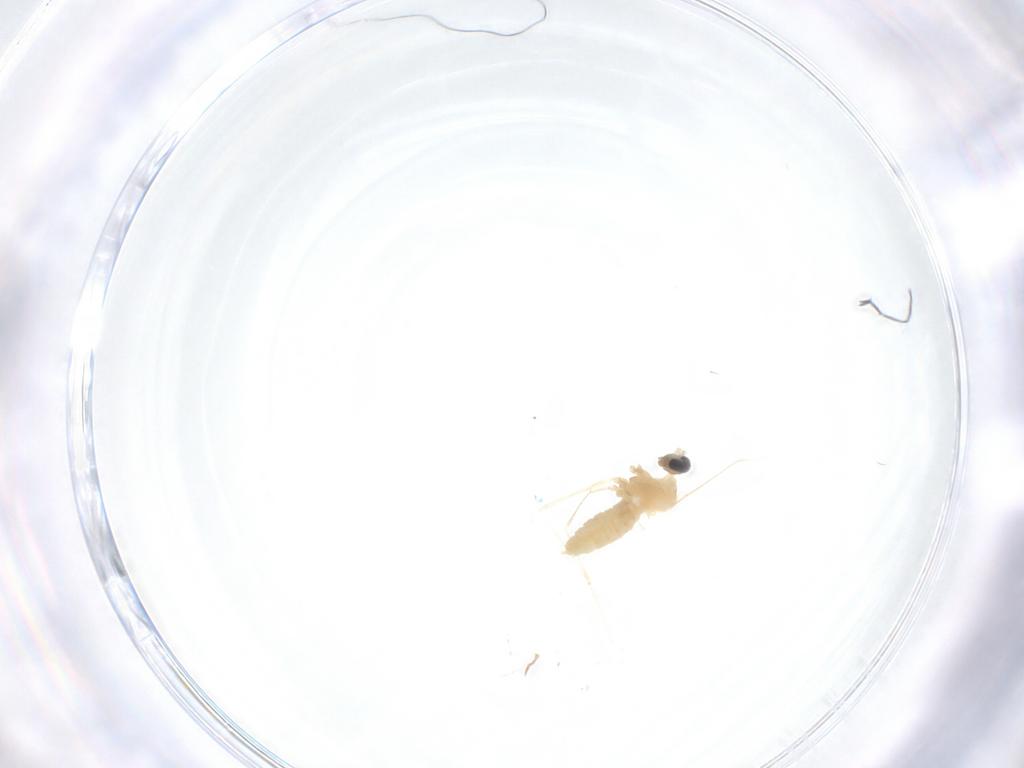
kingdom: Animalia
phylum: Arthropoda
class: Insecta
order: Diptera
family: Cecidomyiidae
